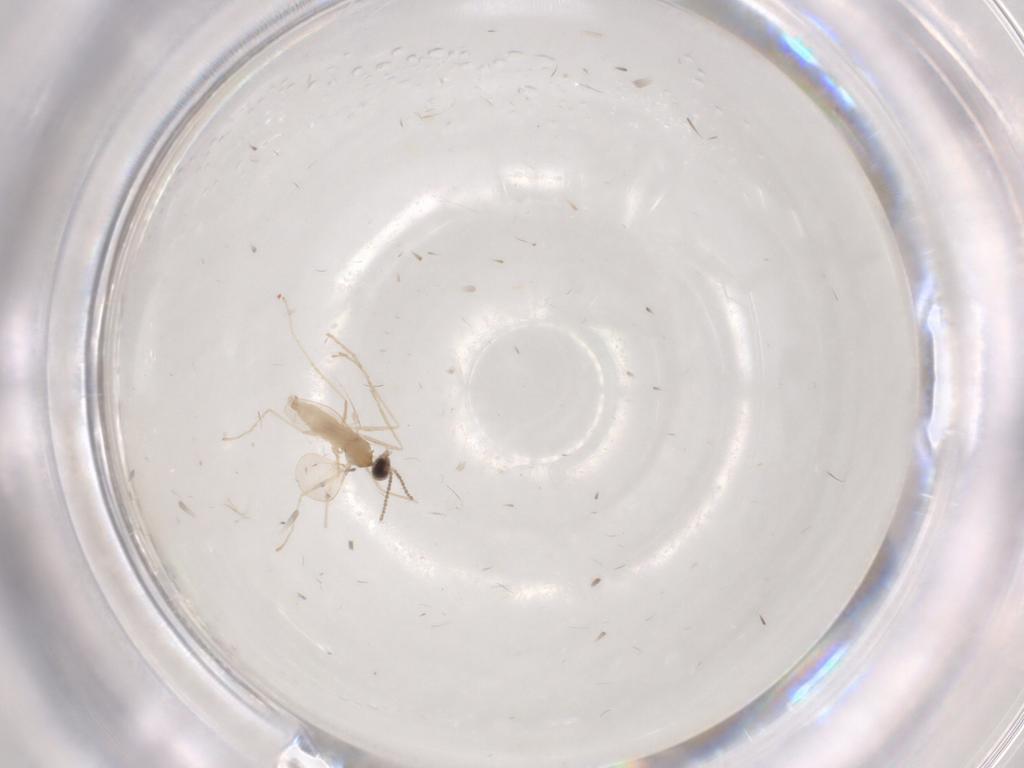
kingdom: Animalia
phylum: Arthropoda
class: Insecta
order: Diptera
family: Cecidomyiidae
